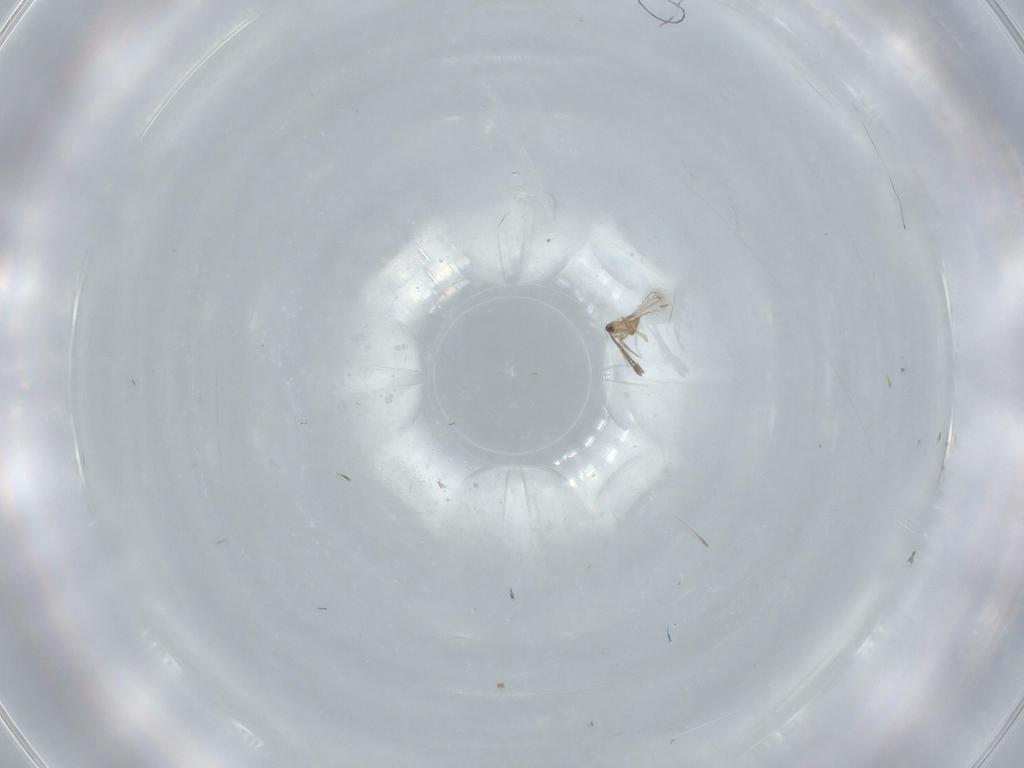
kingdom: Animalia
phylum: Arthropoda
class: Insecta
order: Hymenoptera
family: Mymaridae
